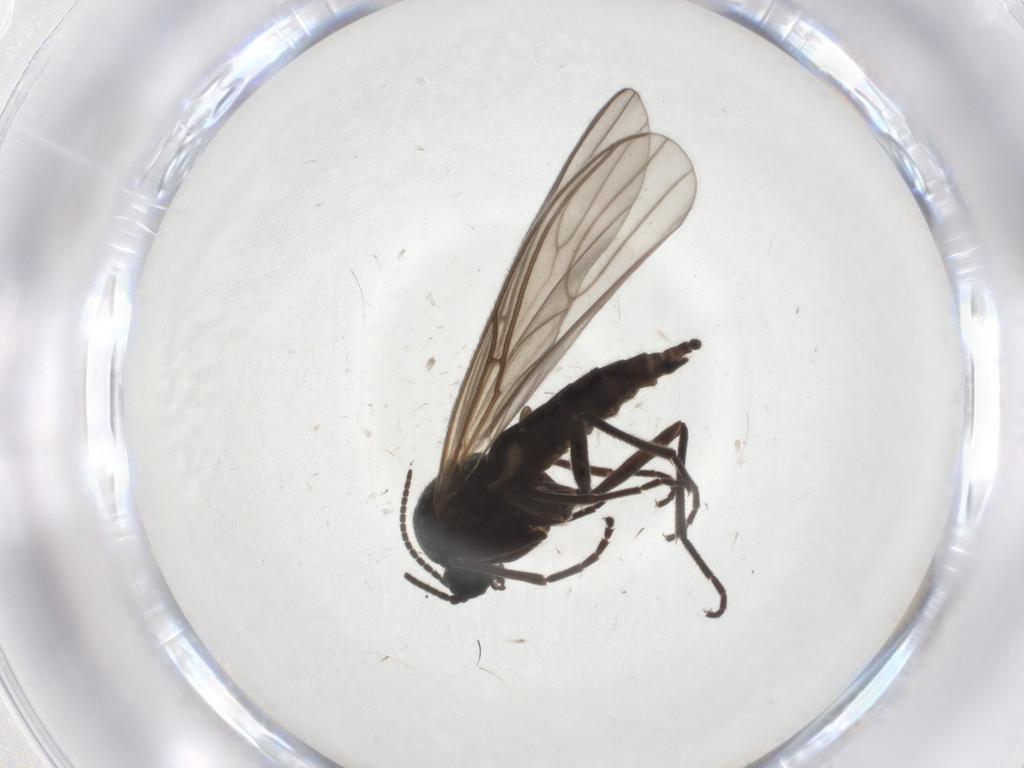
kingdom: Animalia
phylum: Arthropoda
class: Insecta
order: Diptera
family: Sciaridae
